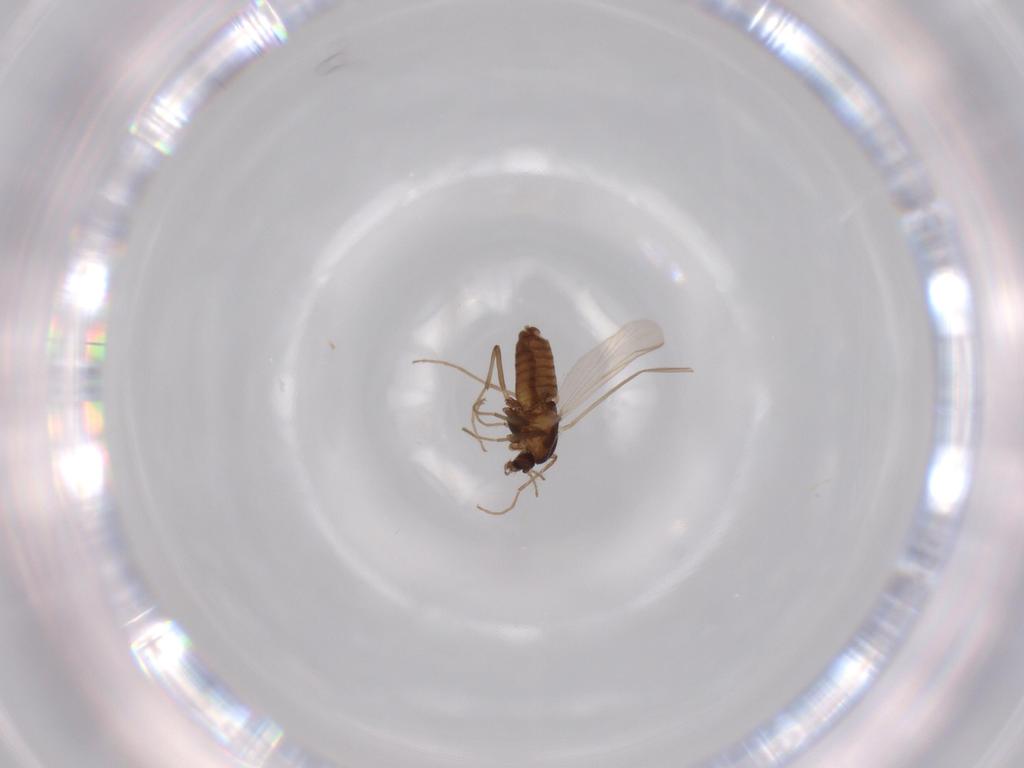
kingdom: Animalia
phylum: Arthropoda
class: Insecta
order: Diptera
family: Chironomidae
